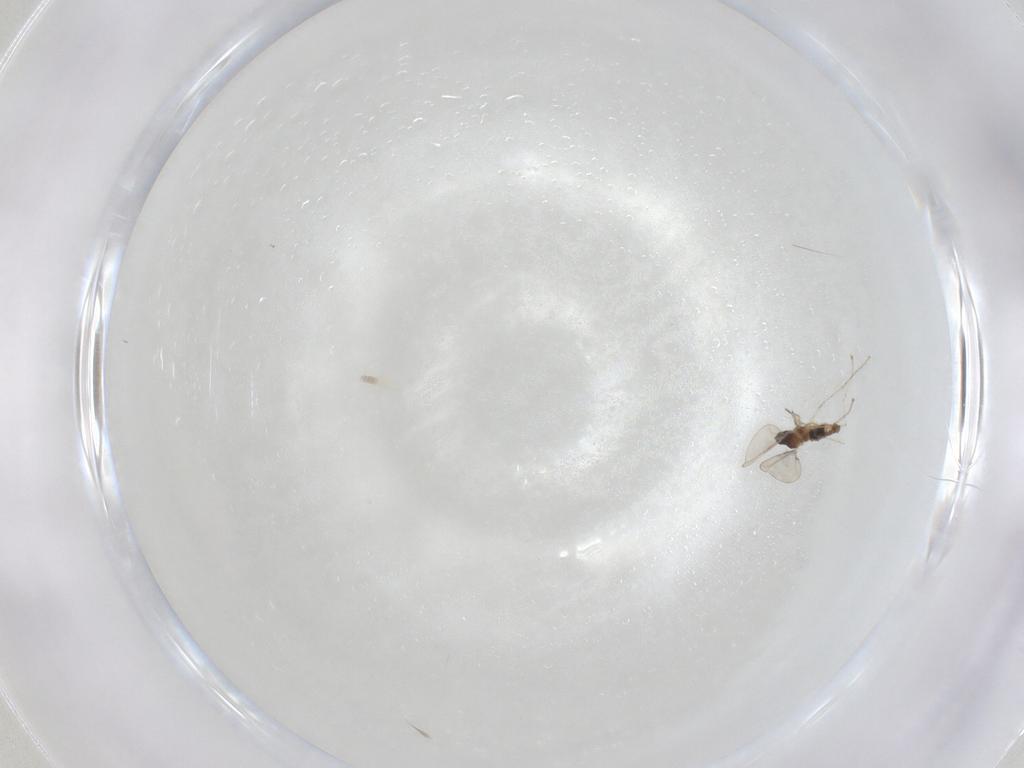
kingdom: Animalia
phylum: Arthropoda
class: Insecta
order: Diptera
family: Cecidomyiidae
